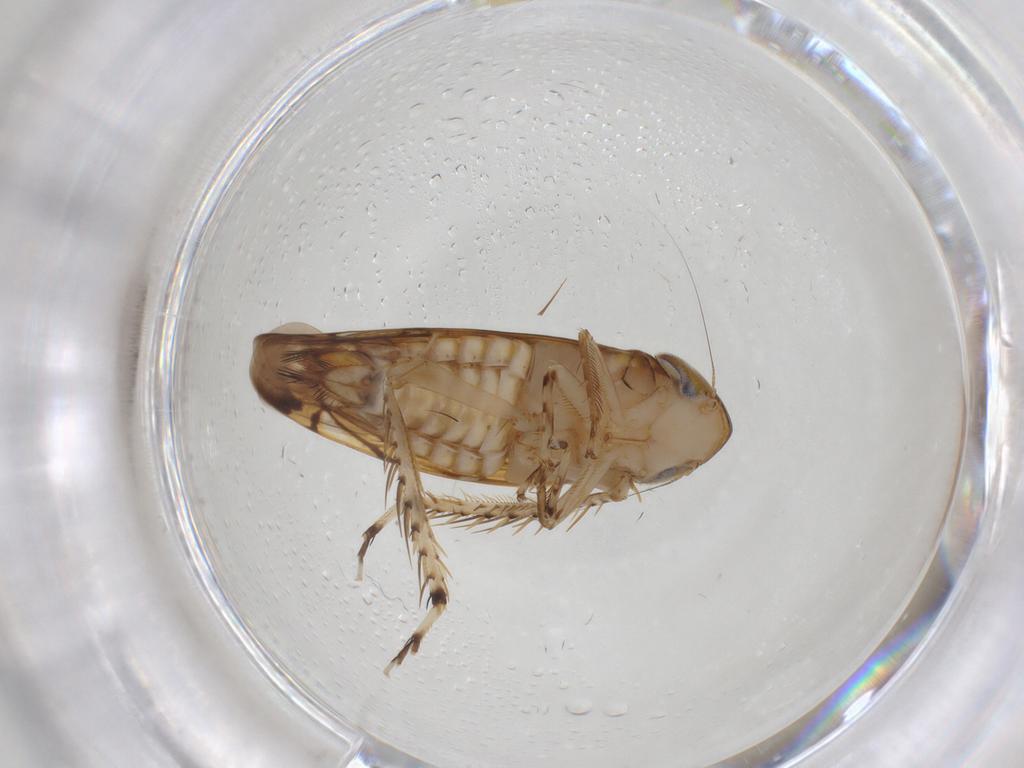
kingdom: Animalia
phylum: Arthropoda
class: Insecta
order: Hemiptera
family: Cicadellidae
